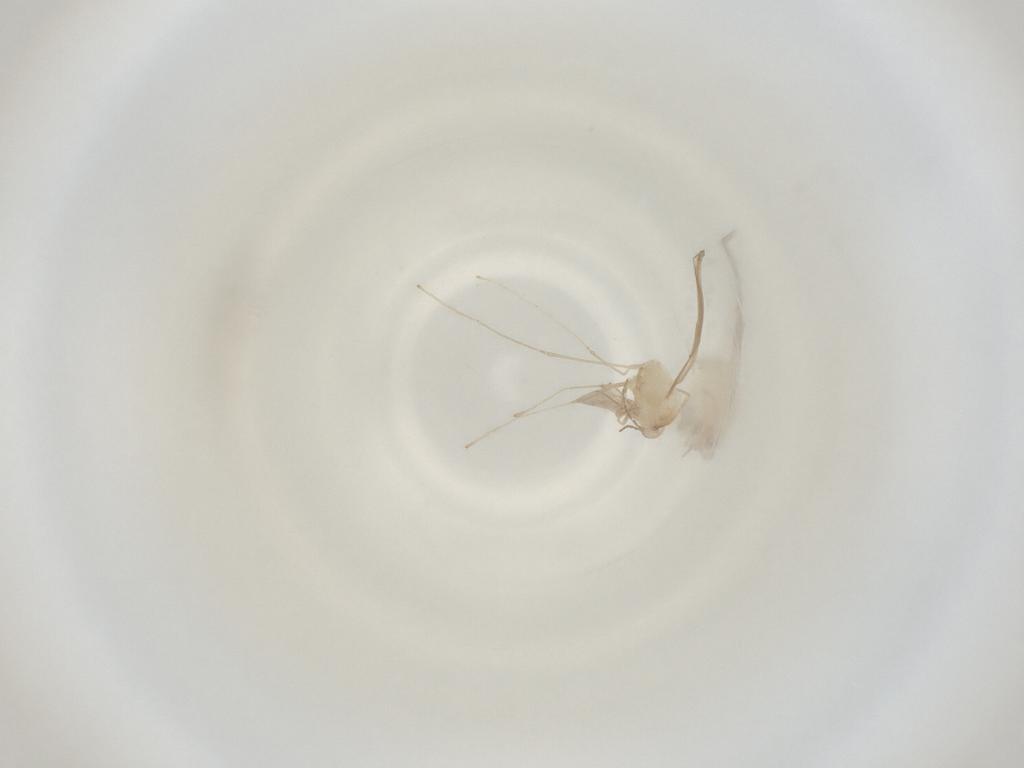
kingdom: Animalia
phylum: Arthropoda
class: Insecta
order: Diptera
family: Cecidomyiidae
